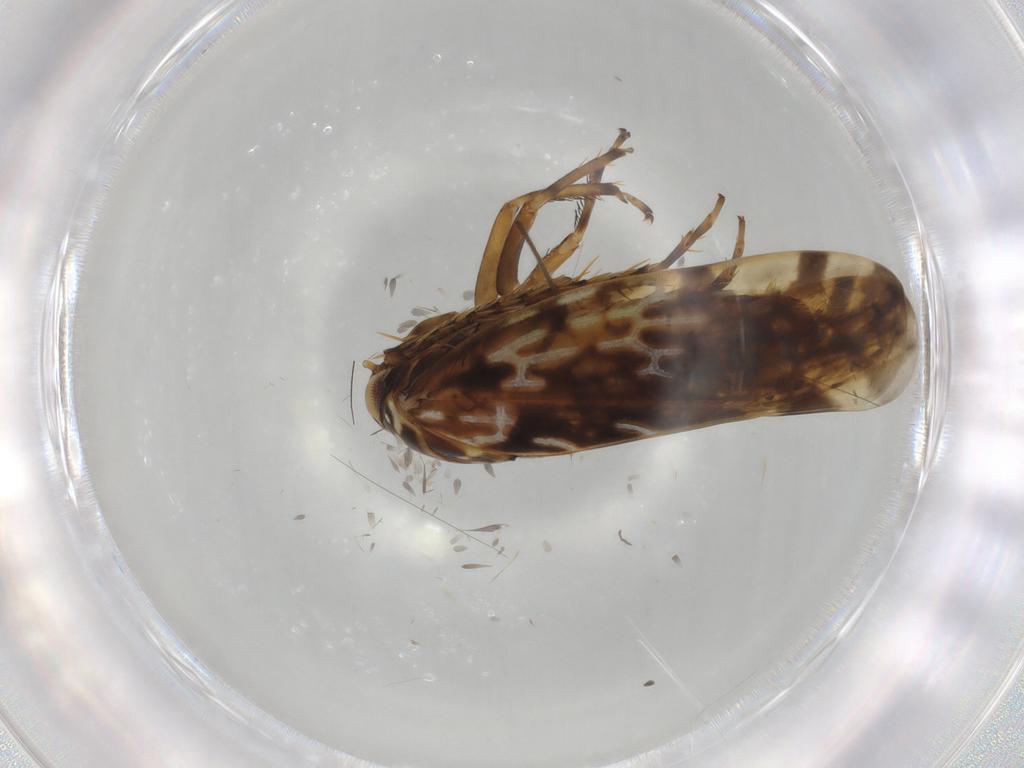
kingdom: Animalia
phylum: Arthropoda
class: Insecta
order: Hemiptera
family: Cicadellidae
